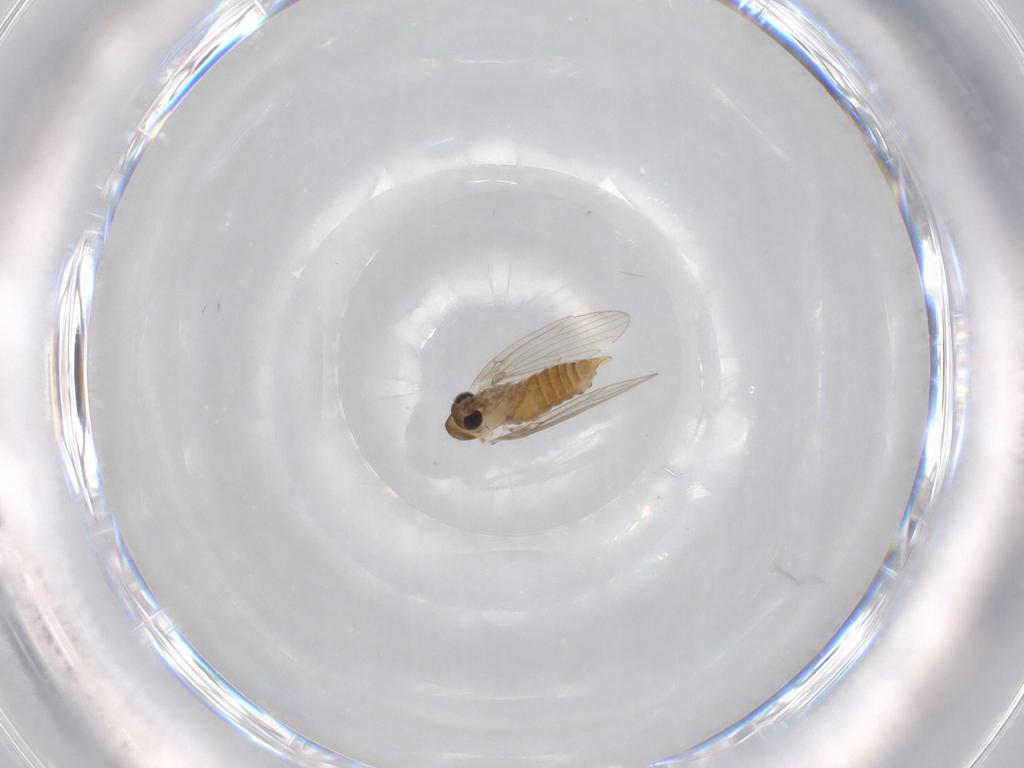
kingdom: Animalia
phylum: Arthropoda
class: Insecta
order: Diptera
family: Psychodidae
